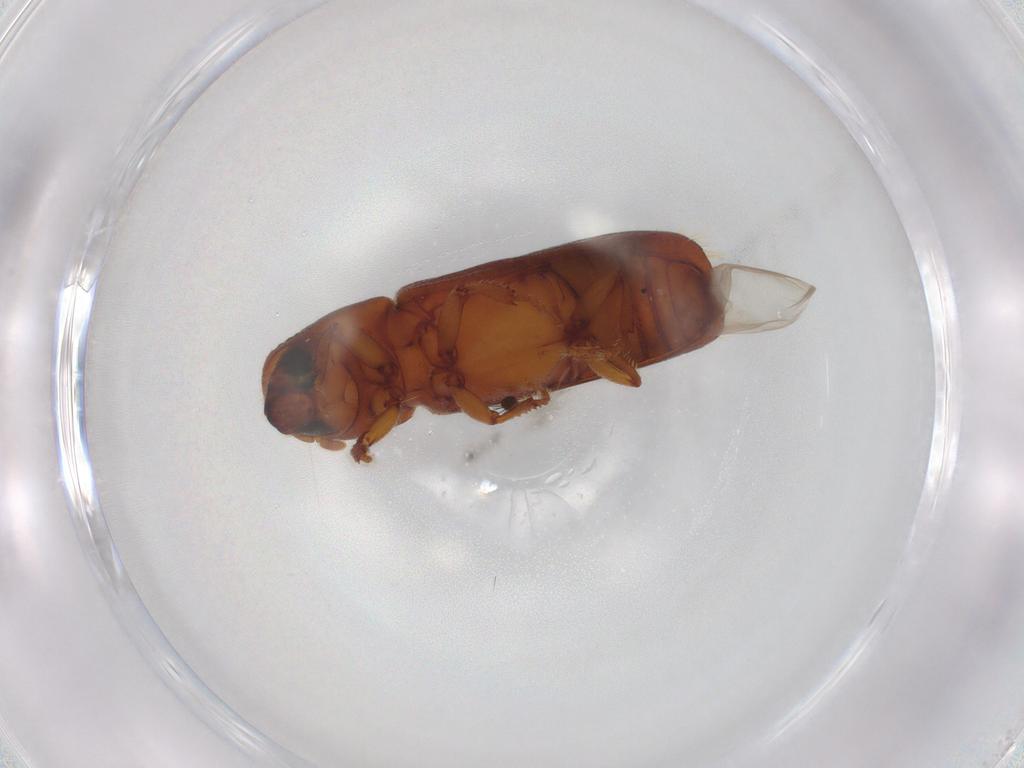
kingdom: Animalia
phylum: Arthropoda
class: Insecta
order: Coleoptera
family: Curculionidae
